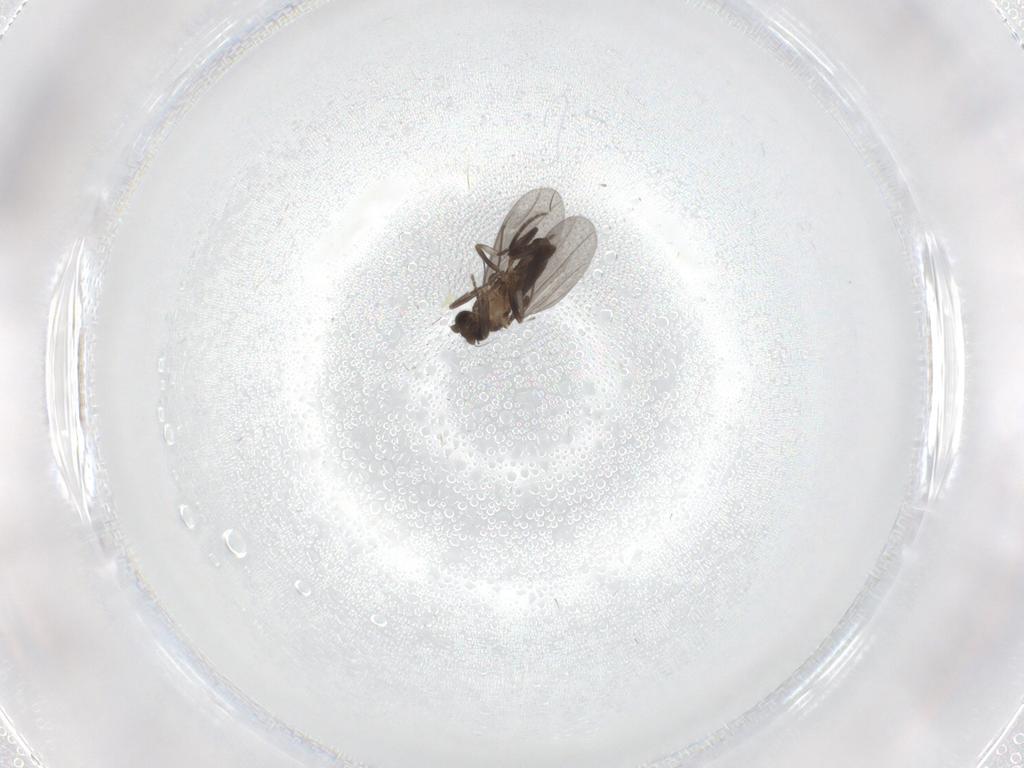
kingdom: Animalia
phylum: Arthropoda
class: Insecta
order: Diptera
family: Phoridae
